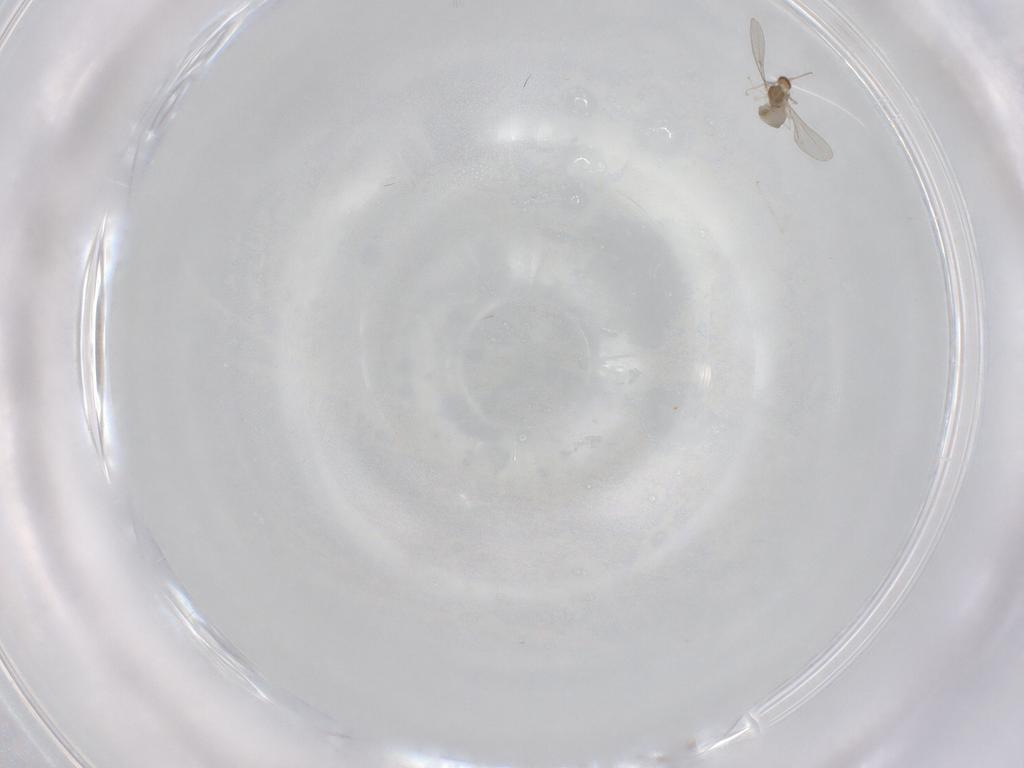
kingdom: Animalia
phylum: Arthropoda
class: Insecta
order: Diptera
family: Cecidomyiidae
